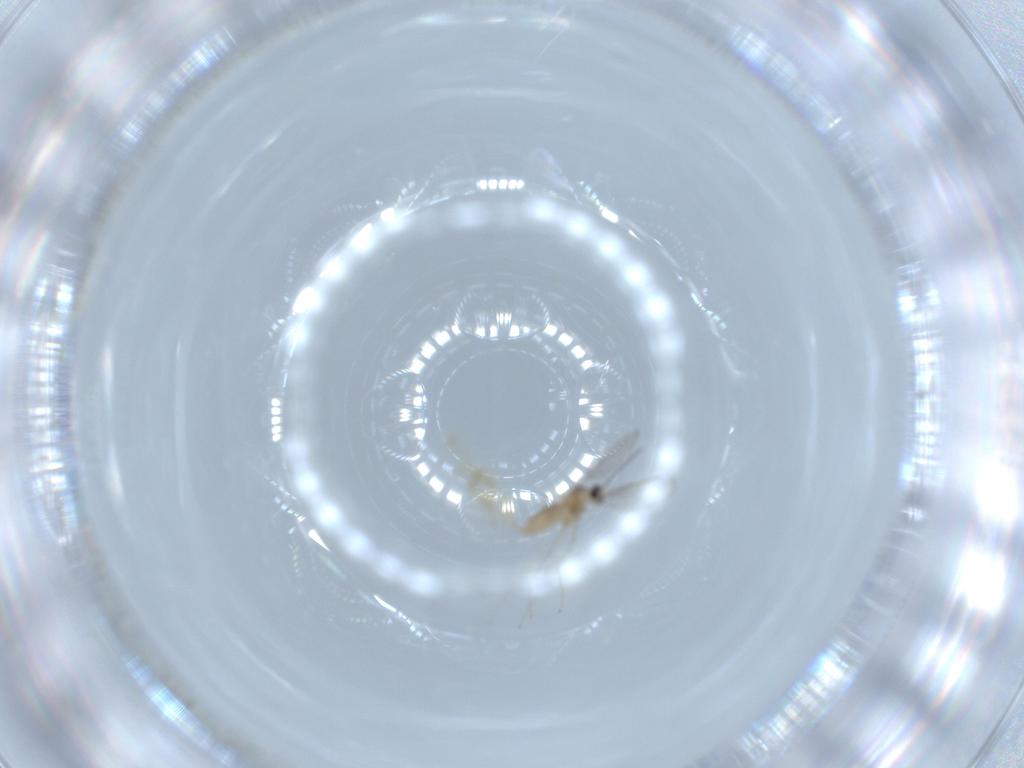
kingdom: Animalia
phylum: Arthropoda
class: Insecta
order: Diptera
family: Cecidomyiidae
